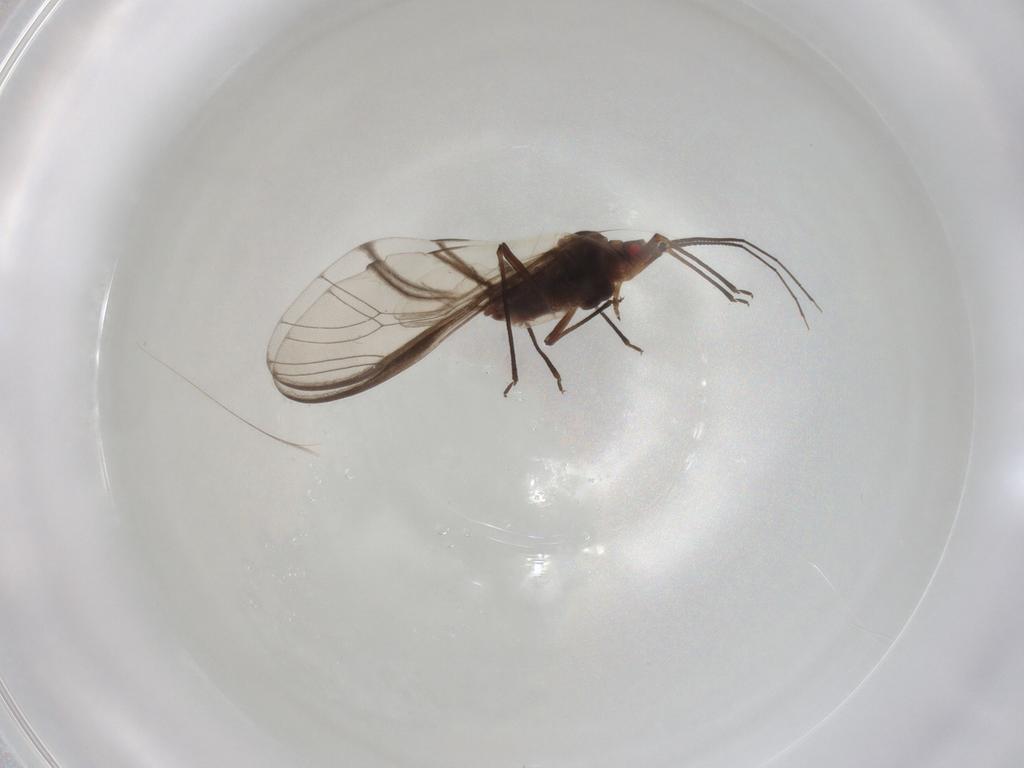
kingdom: Animalia
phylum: Arthropoda
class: Insecta
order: Hemiptera
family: Aphididae
